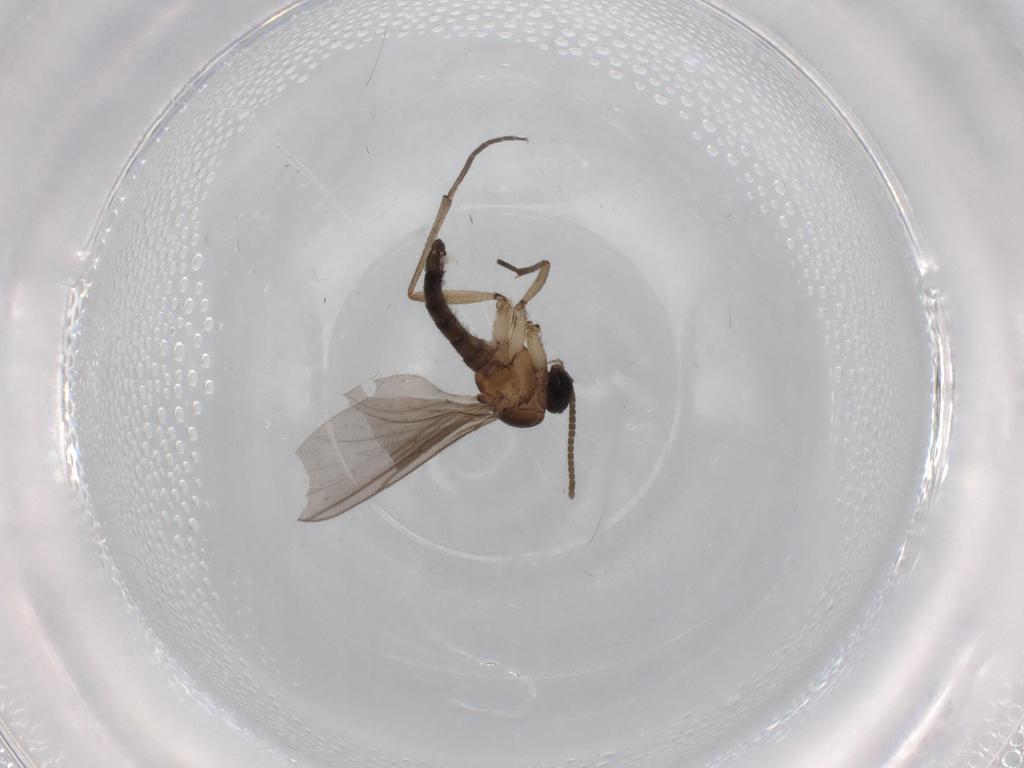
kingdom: Animalia
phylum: Arthropoda
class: Insecta
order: Diptera
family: Sciaridae
